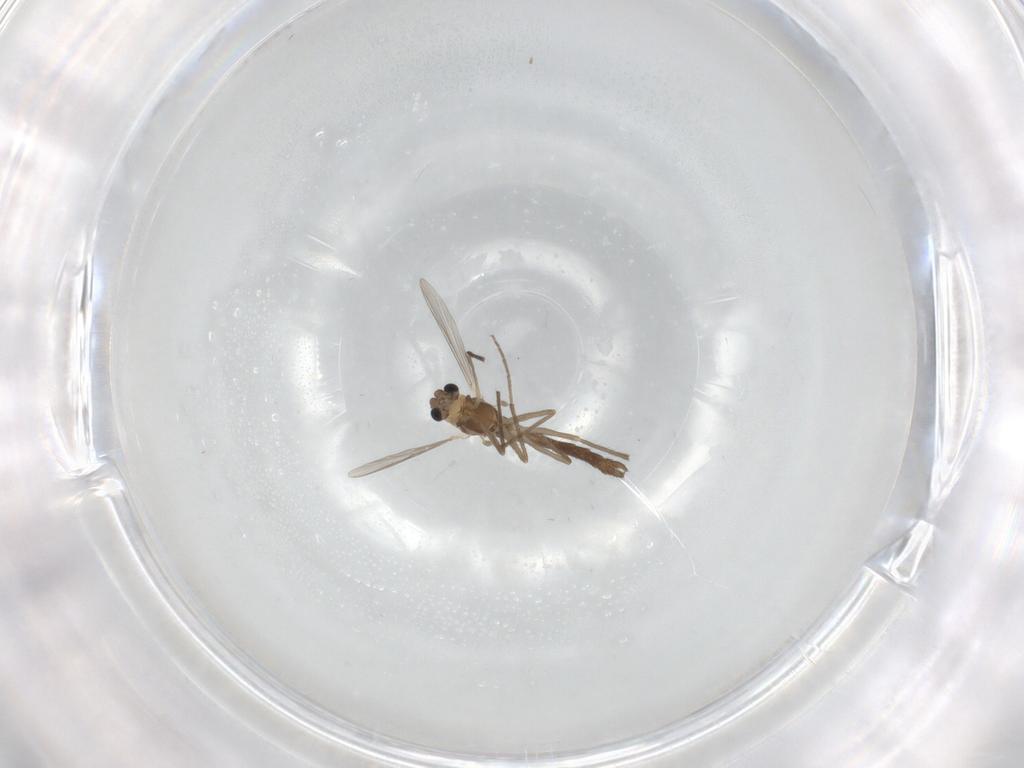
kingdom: Animalia
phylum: Arthropoda
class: Insecta
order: Diptera
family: Chironomidae
